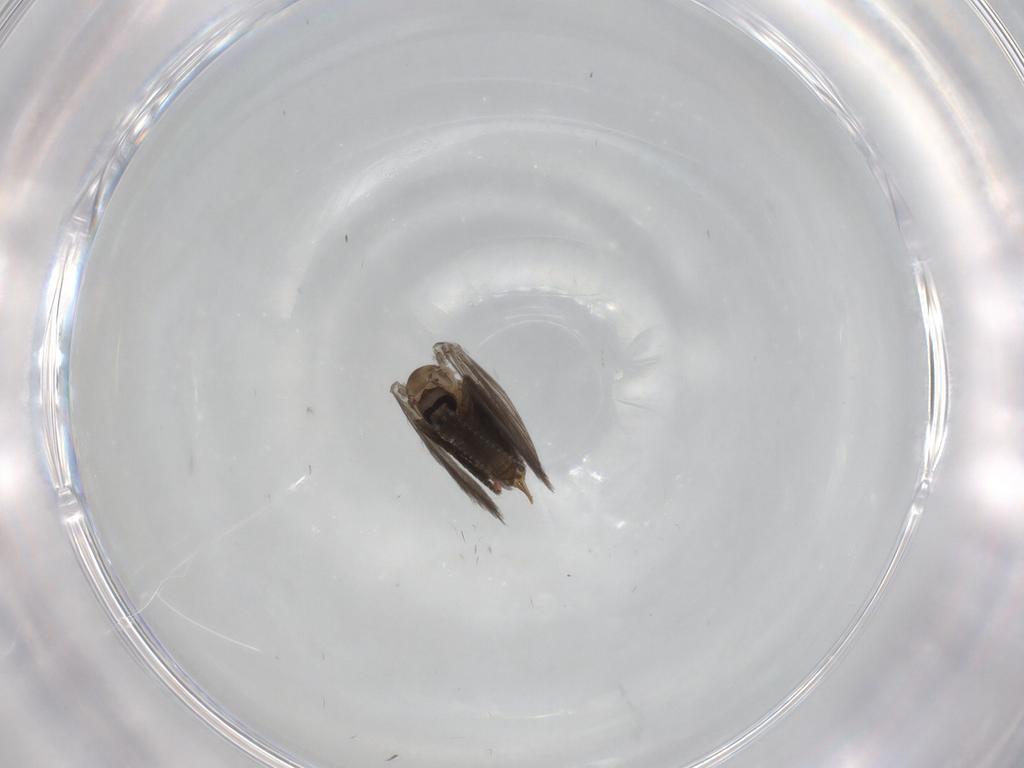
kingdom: Animalia
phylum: Arthropoda
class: Insecta
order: Diptera
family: Psychodidae
